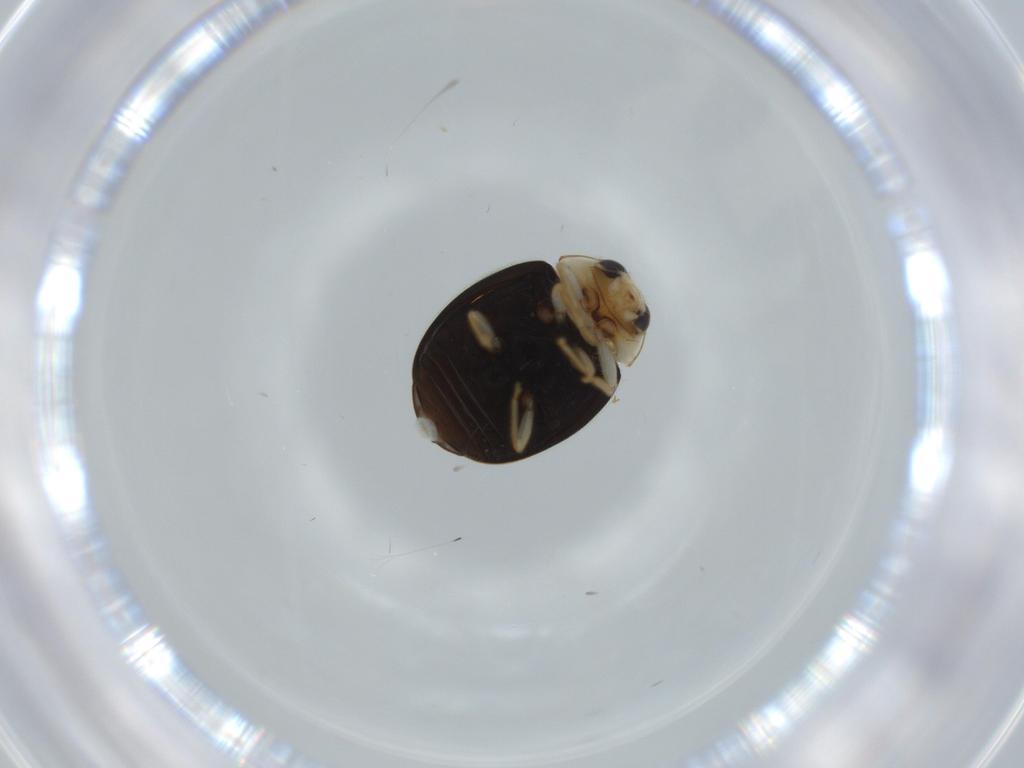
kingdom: Animalia
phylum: Arthropoda
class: Insecta
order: Coleoptera
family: Coccinellidae
